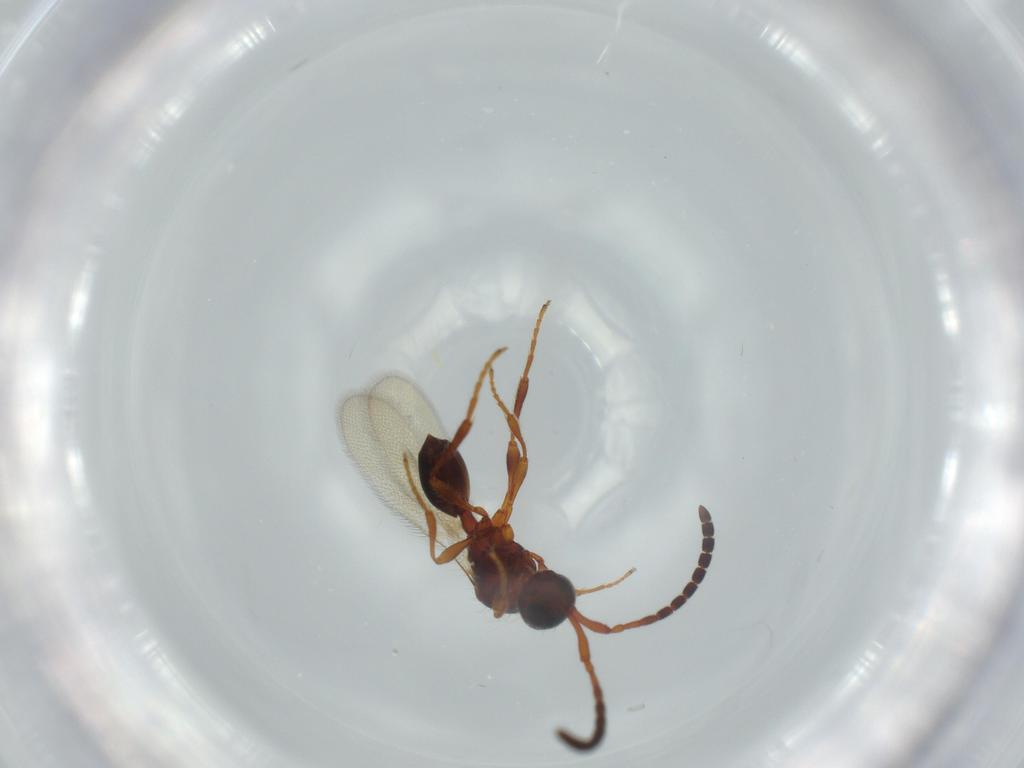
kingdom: Animalia
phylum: Arthropoda
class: Insecta
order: Hymenoptera
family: Diapriidae
